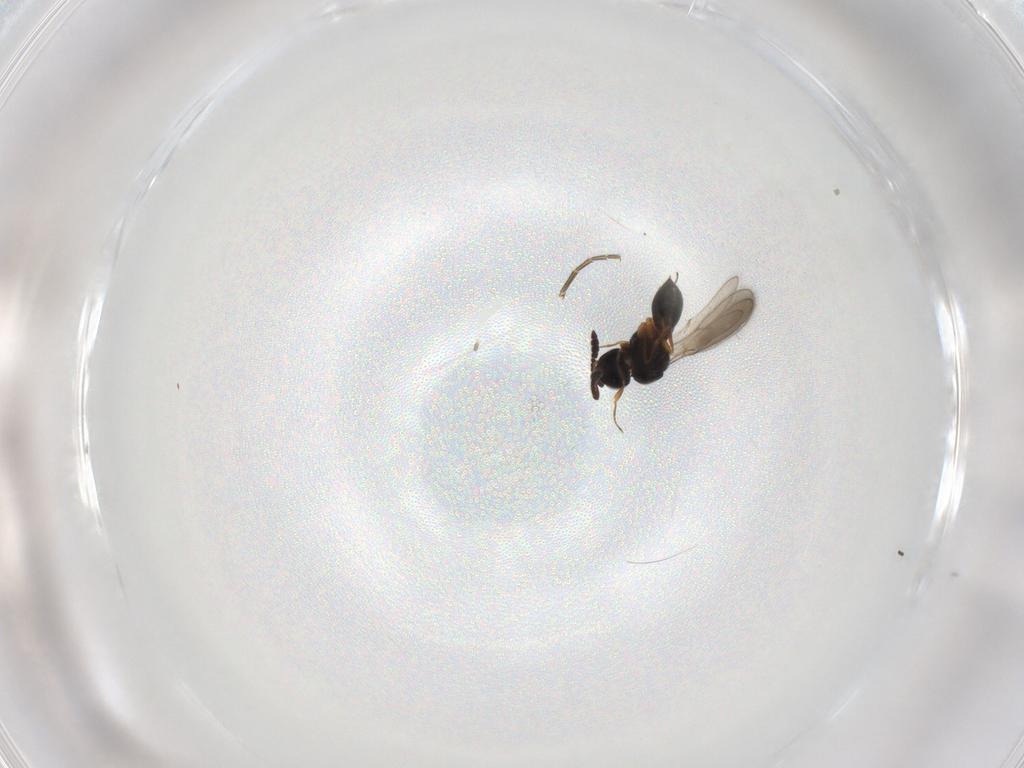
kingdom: Animalia
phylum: Arthropoda
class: Insecta
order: Hymenoptera
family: Scelionidae
